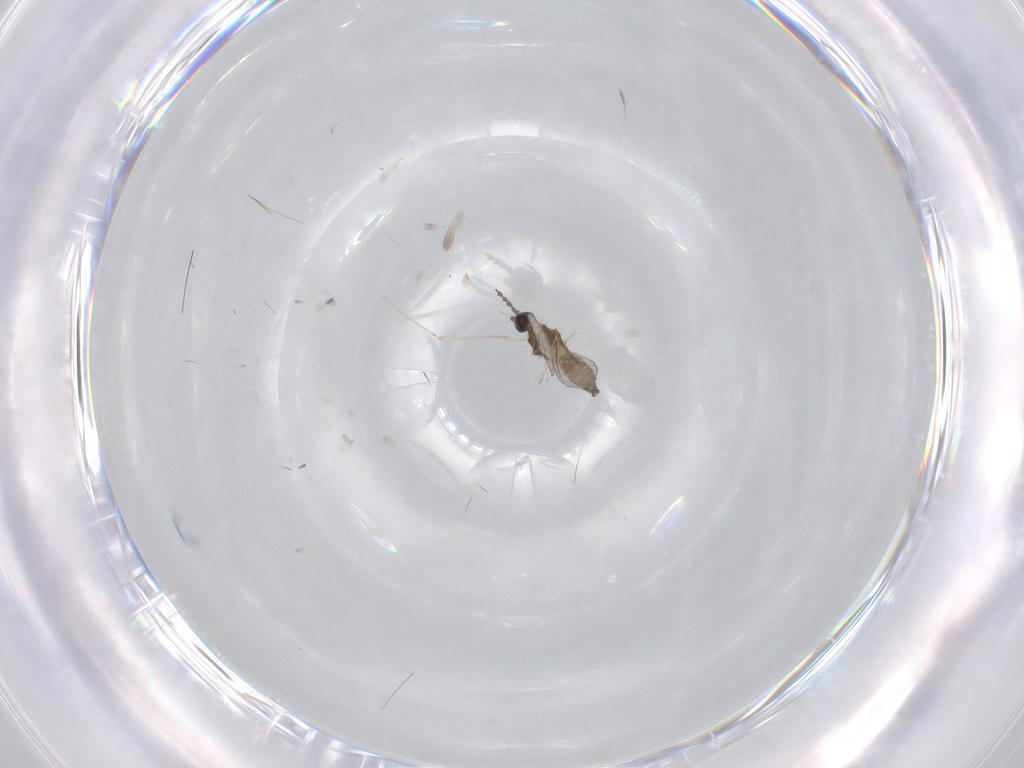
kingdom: Animalia
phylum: Arthropoda
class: Insecta
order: Diptera
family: Cecidomyiidae
